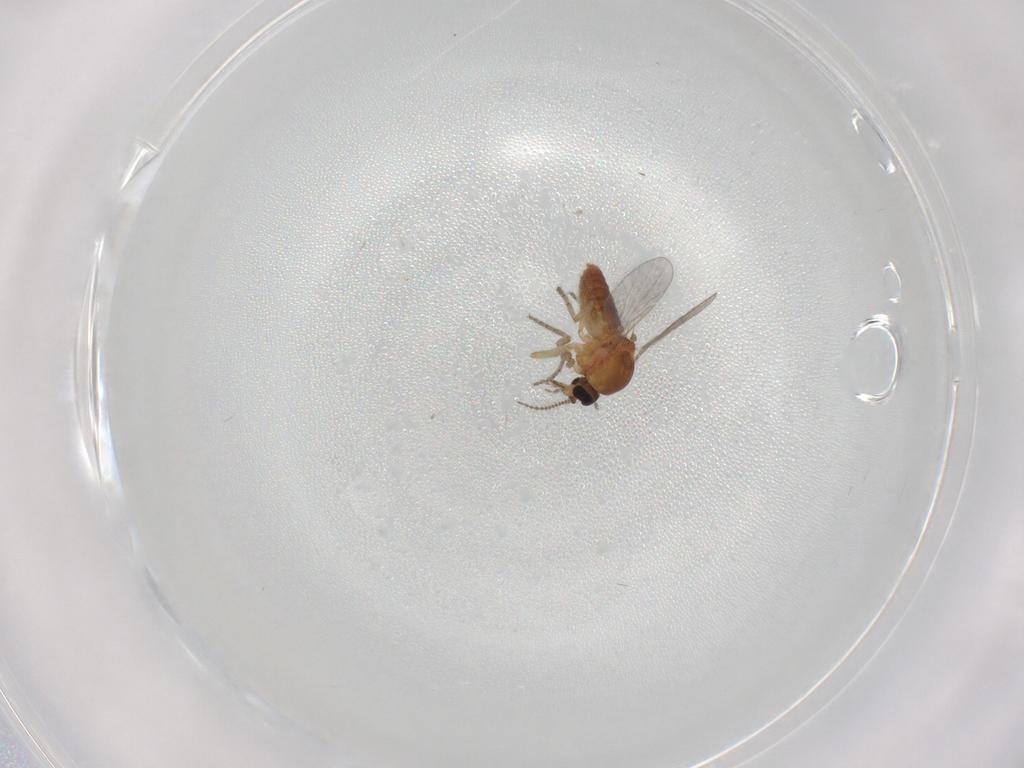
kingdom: Animalia
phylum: Arthropoda
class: Insecta
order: Diptera
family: Ceratopogonidae
